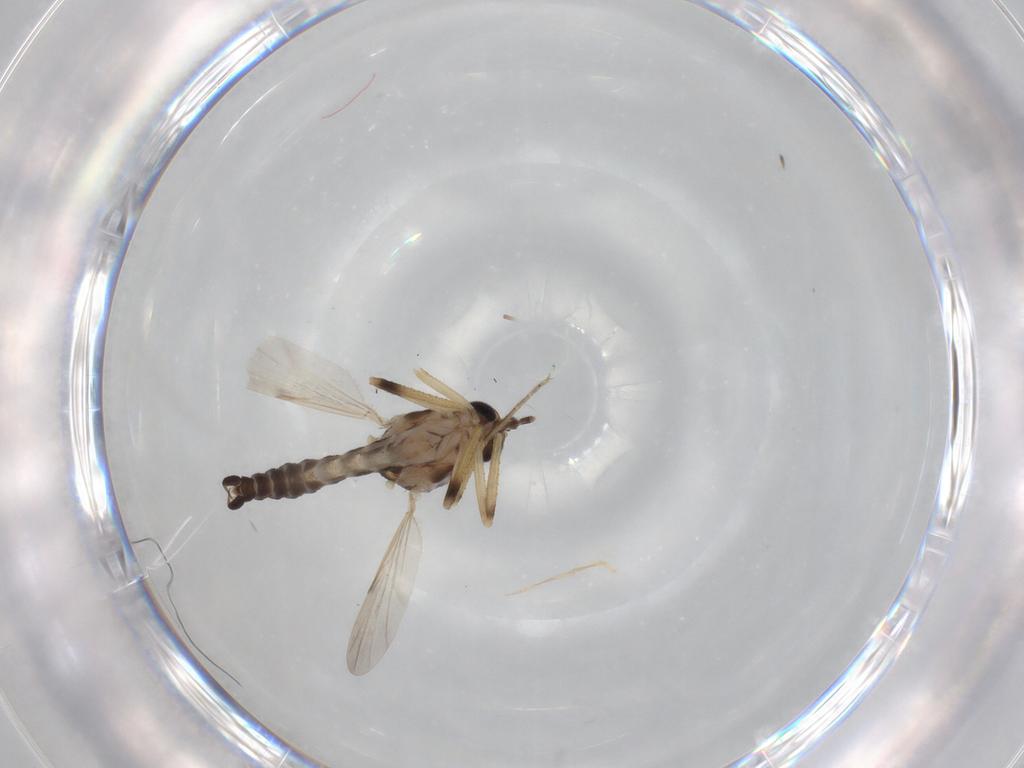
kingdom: Animalia
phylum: Arthropoda
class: Insecta
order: Diptera
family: Ceratopogonidae
